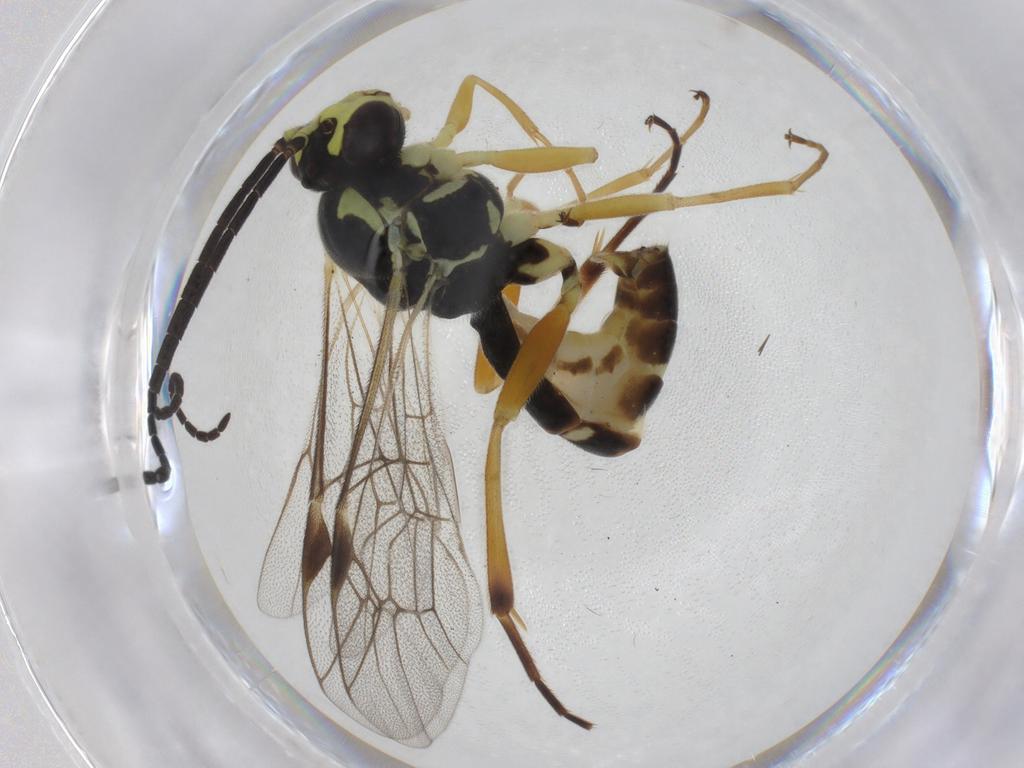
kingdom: Animalia
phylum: Arthropoda
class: Insecta
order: Hymenoptera
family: Ichneumonidae
